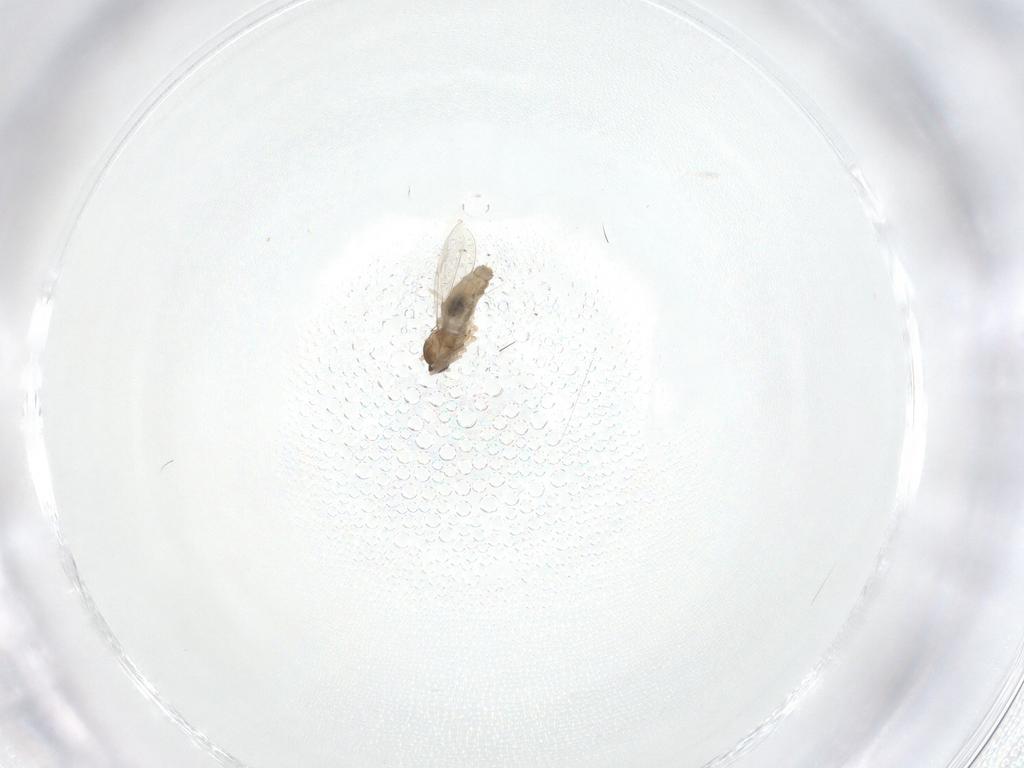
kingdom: Animalia
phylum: Arthropoda
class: Insecta
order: Diptera
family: Cecidomyiidae
